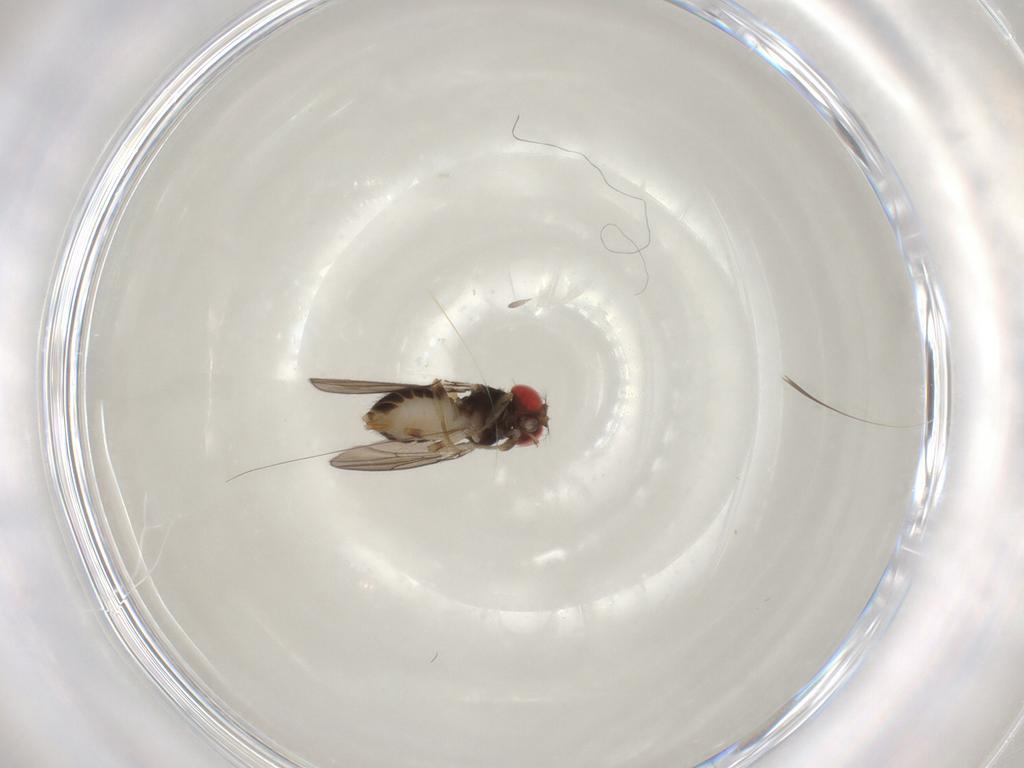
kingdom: Animalia
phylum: Arthropoda
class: Insecta
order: Diptera
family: Drosophilidae
